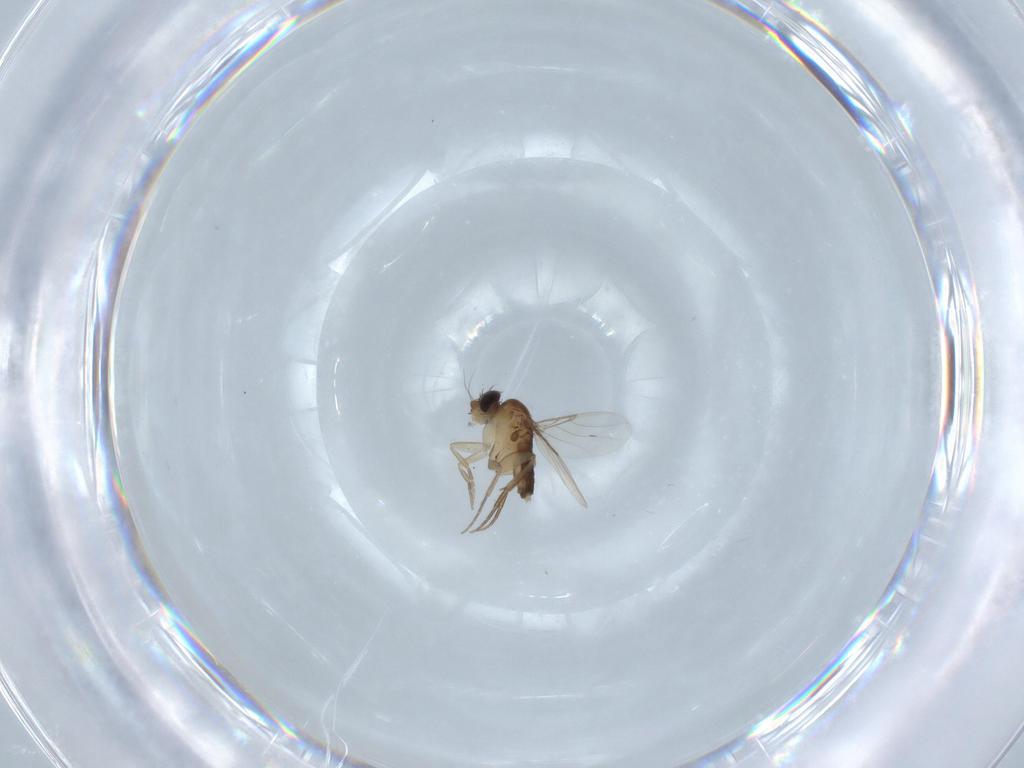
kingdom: Animalia
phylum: Arthropoda
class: Insecta
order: Diptera
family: Phoridae
